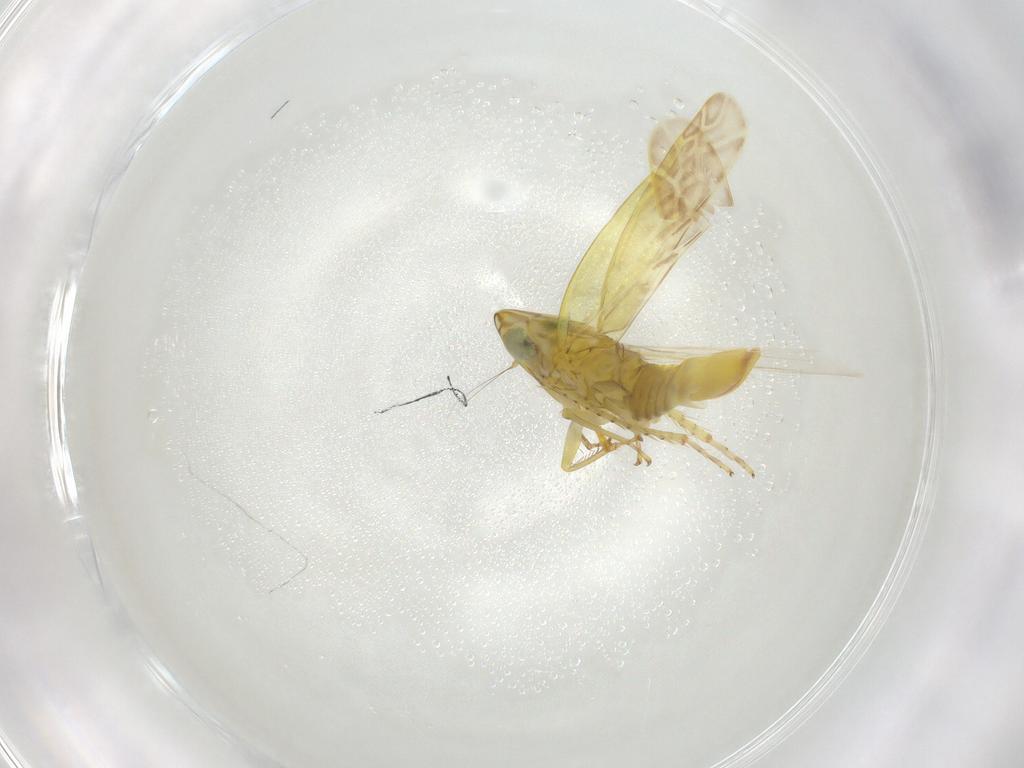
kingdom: Animalia
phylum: Arthropoda
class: Insecta
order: Hemiptera
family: Cicadellidae
